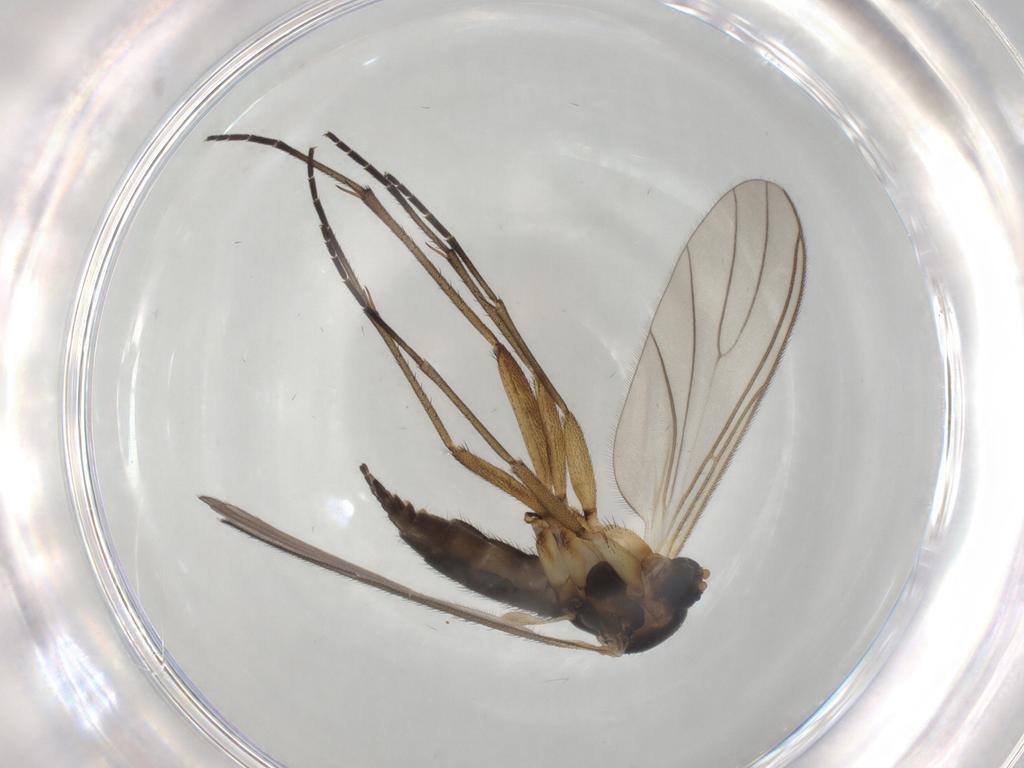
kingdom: Animalia
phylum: Arthropoda
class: Insecta
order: Diptera
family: Sciaridae
